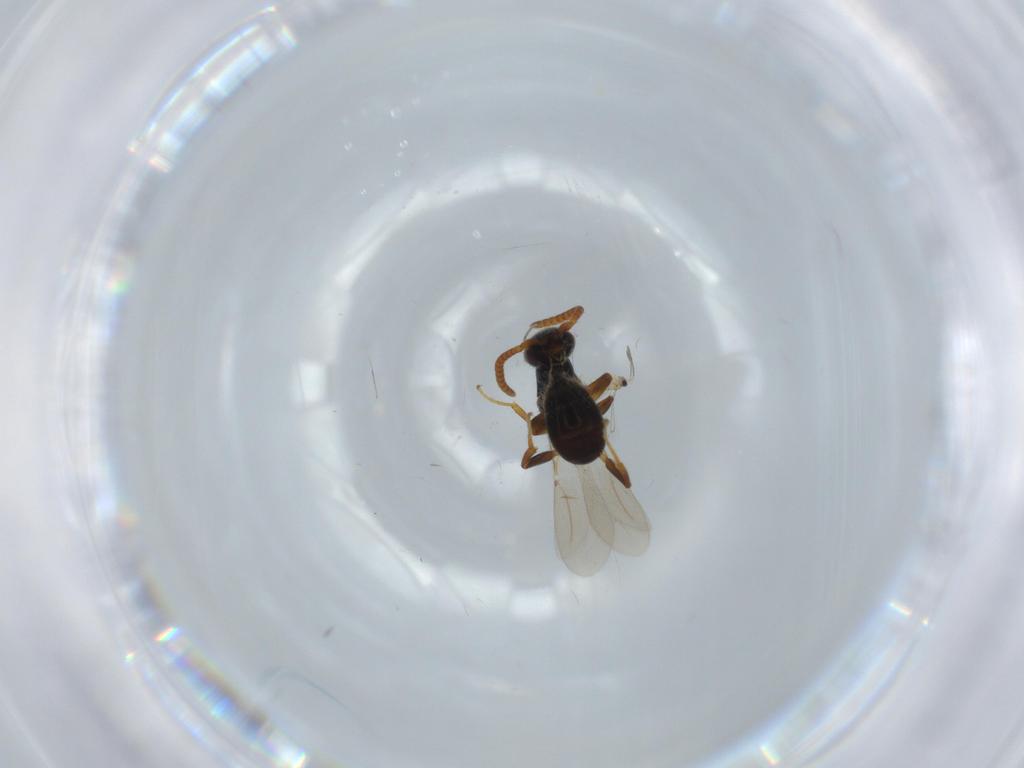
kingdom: Animalia
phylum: Arthropoda
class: Insecta
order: Hymenoptera
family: Bethylidae
